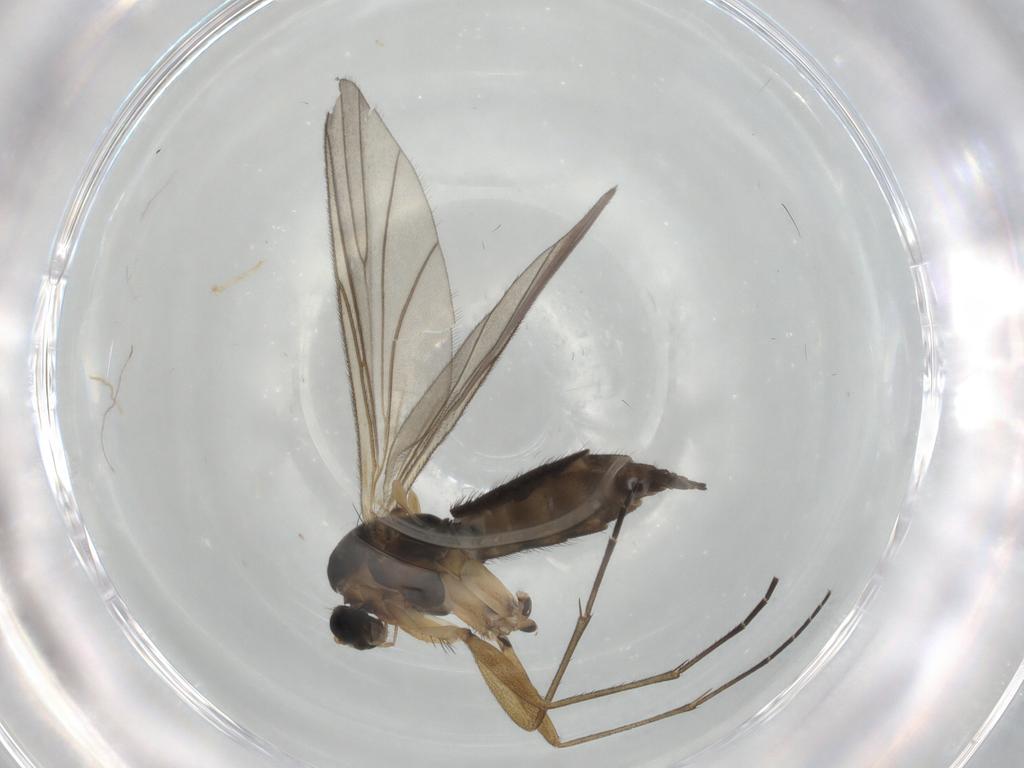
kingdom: Animalia
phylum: Arthropoda
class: Insecta
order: Diptera
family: Sciaridae
